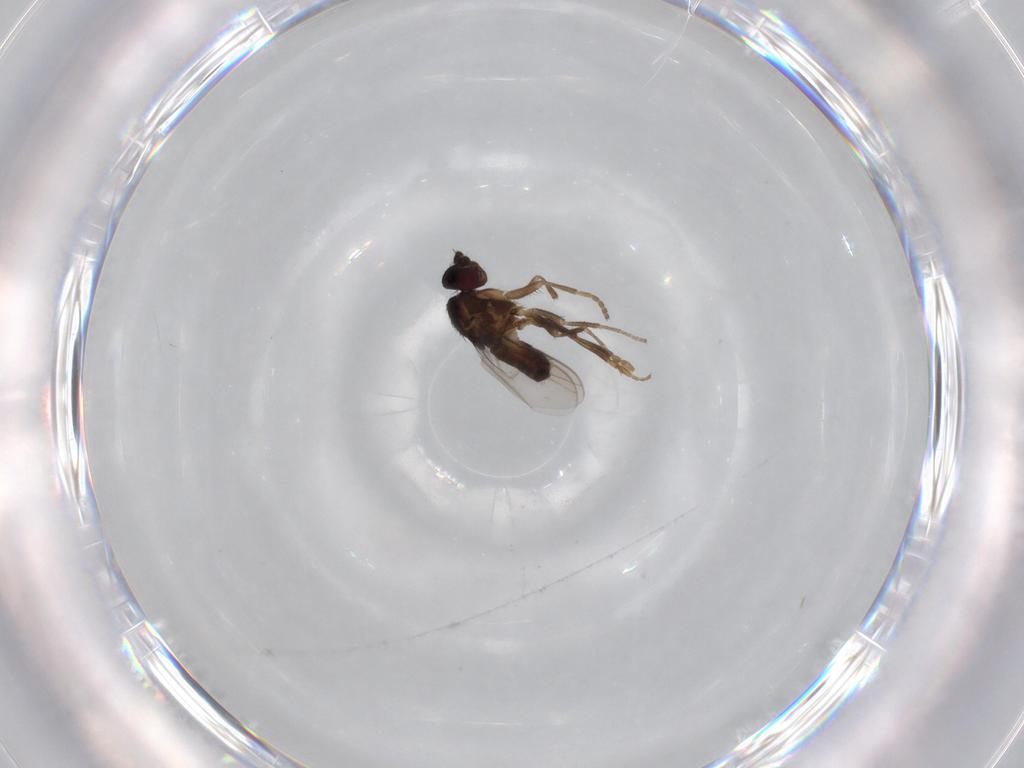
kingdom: Animalia
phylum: Arthropoda
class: Insecta
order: Diptera
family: Sphaeroceridae
